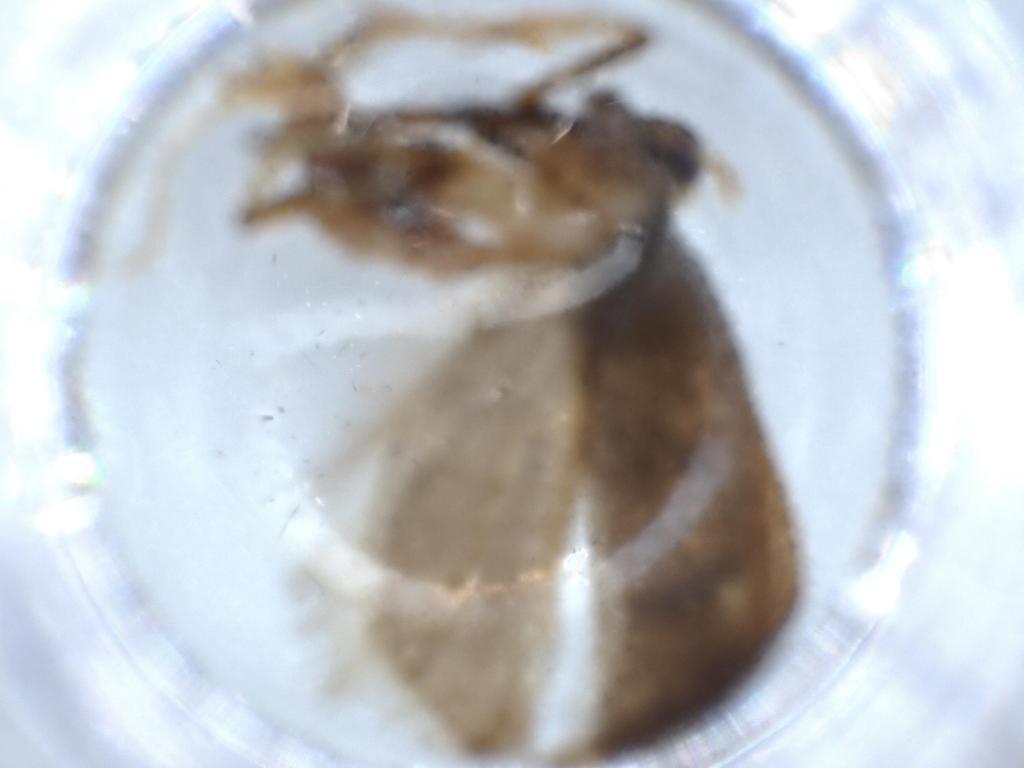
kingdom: Animalia
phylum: Arthropoda
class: Insecta
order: Lepidoptera
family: Lecithoceridae
